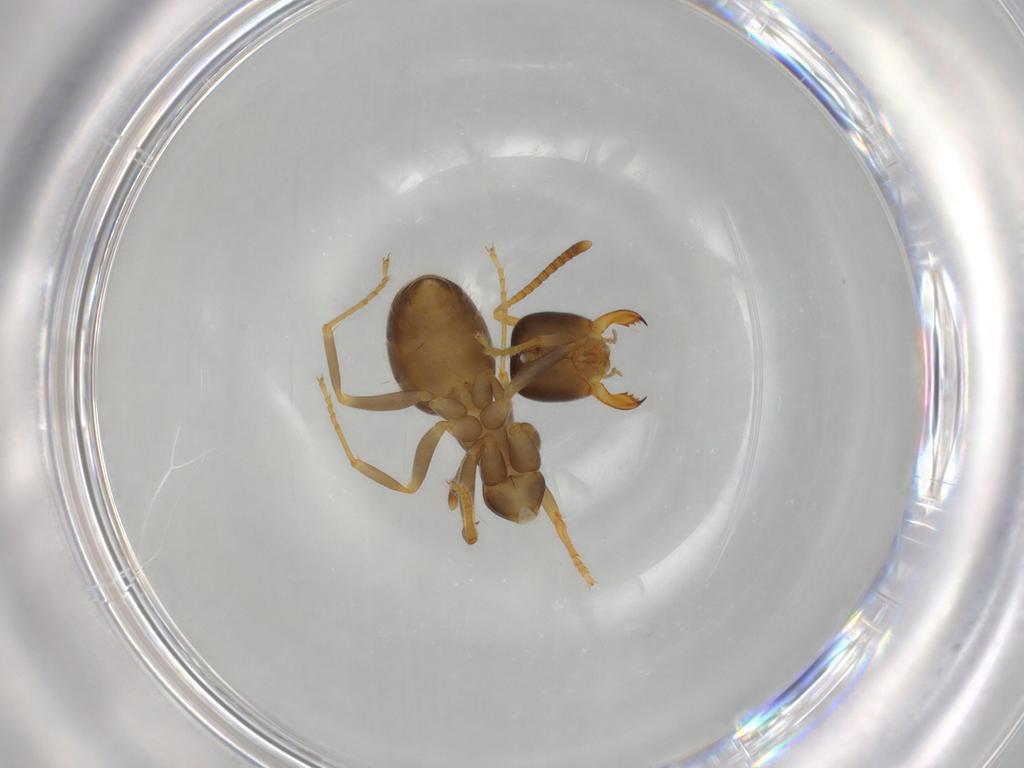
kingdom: Animalia
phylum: Arthropoda
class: Insecta
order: Hymenoptera
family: Formicidae
